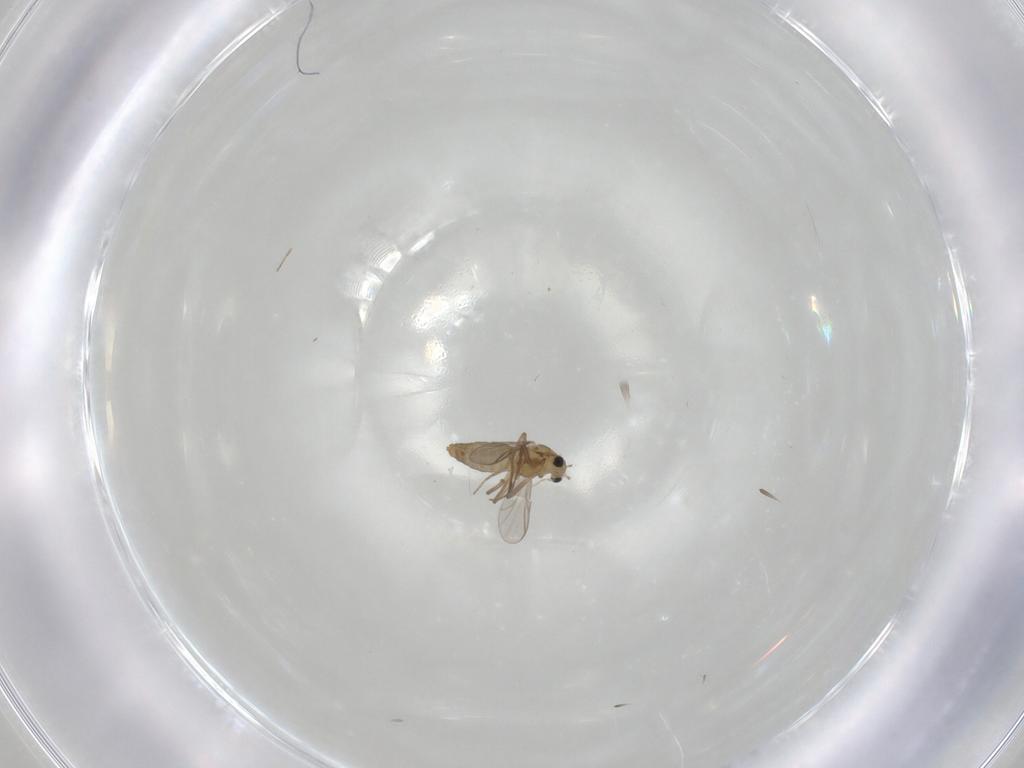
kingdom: Animalia
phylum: Arthropoda
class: Insecta
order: Diptera
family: Chironomidae
